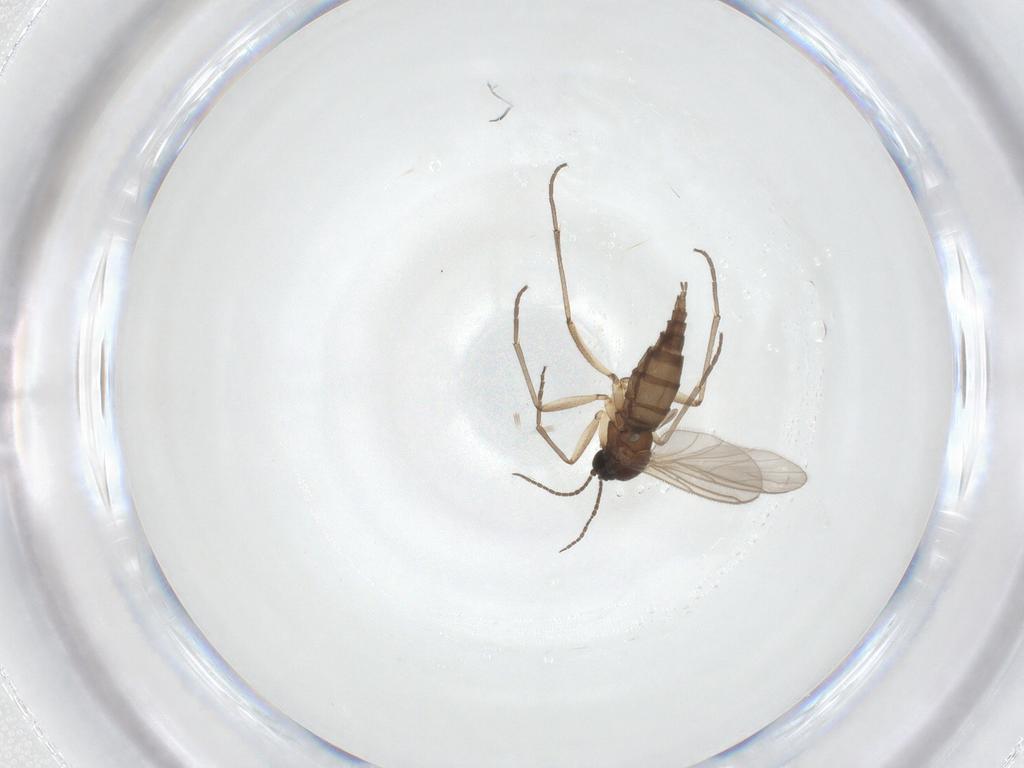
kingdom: Animalia
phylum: Arthropoda
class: Insecta
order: Diptera
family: Sciaridae
